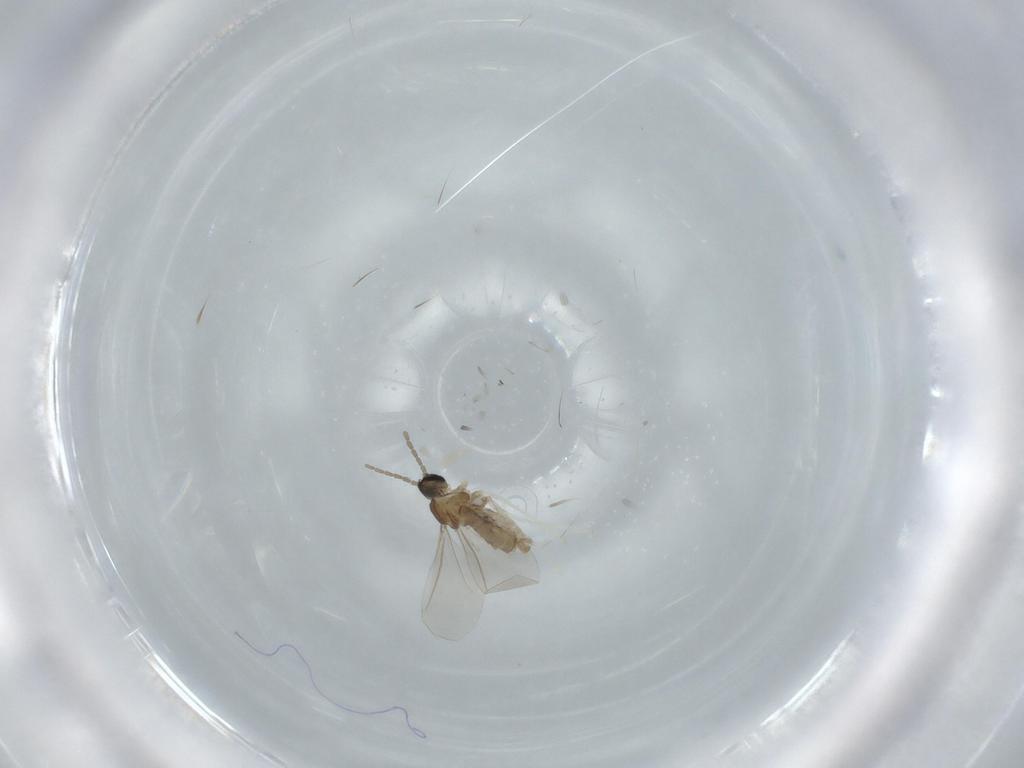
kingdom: Animalia
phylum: Arthropoda
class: Insecta
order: Diptera
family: Cecidomyiidae
